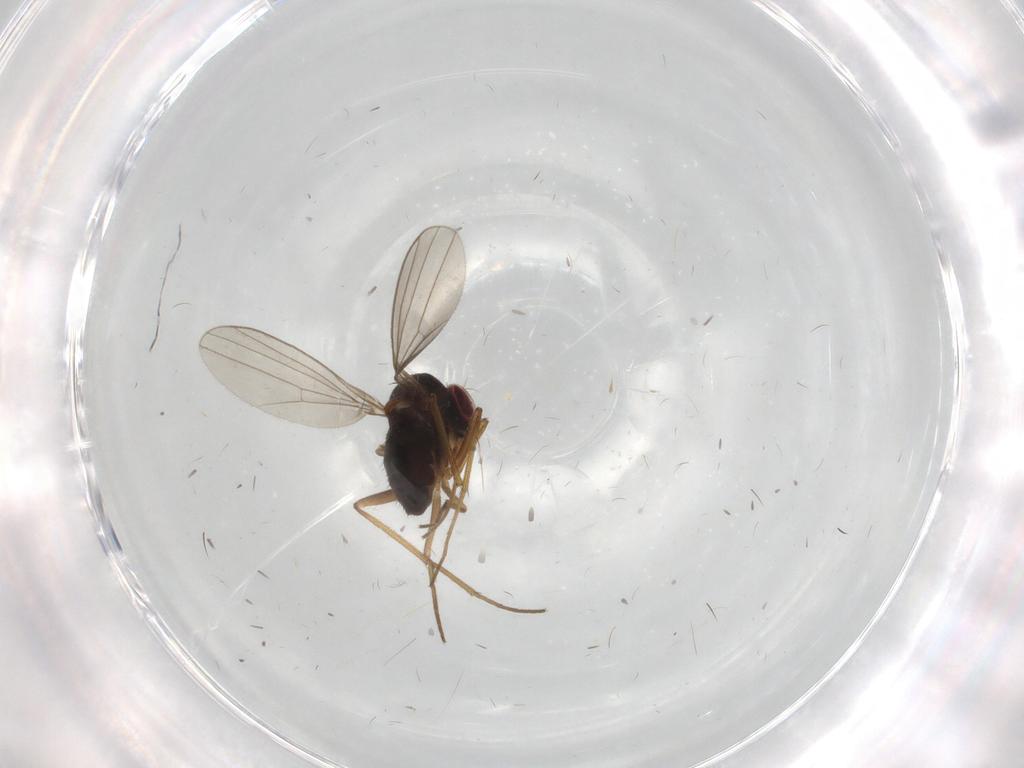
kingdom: Animalia
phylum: Arthropoda
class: Insecta
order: Diptera
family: Dolichopodidae
